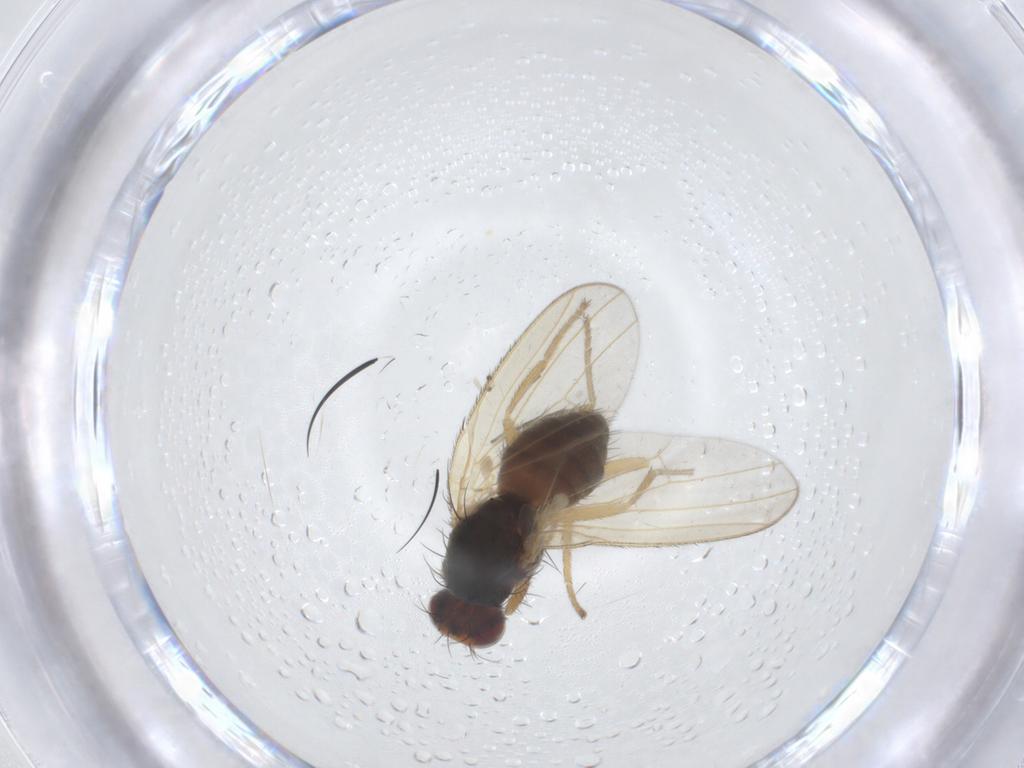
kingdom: Animalia
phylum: Arthropoda
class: Insecta
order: Diptera
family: Heleomyzidae
